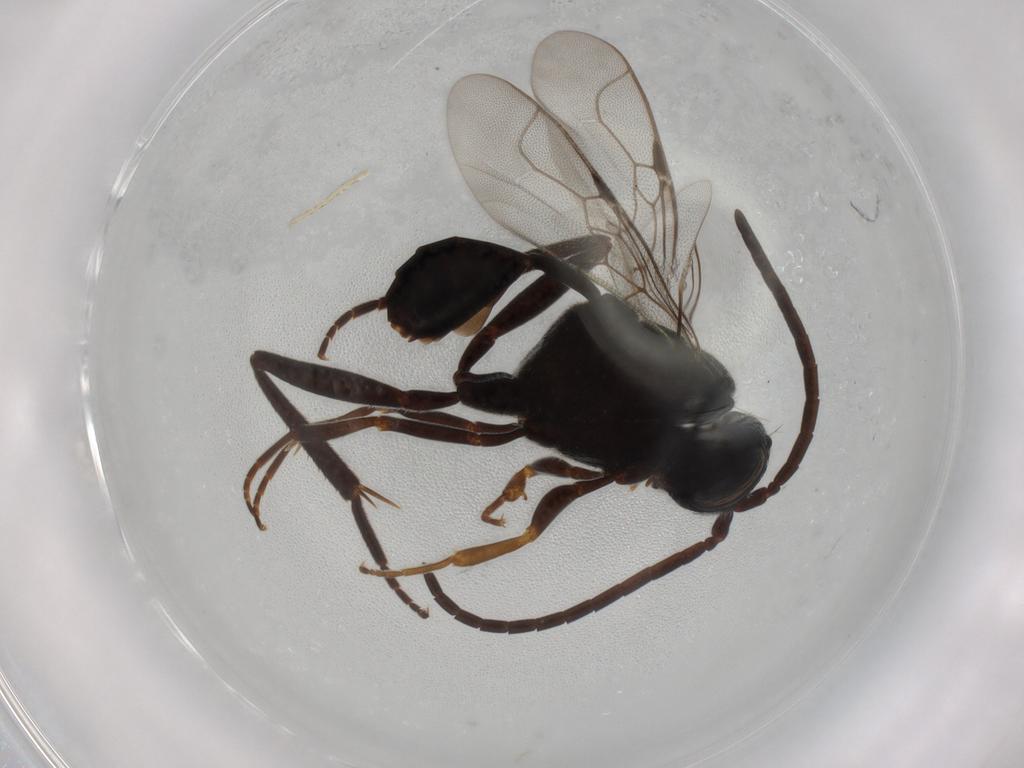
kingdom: Animalia
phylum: Arthropoda
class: Insecta
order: Hymenoptera
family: Evaniidae
